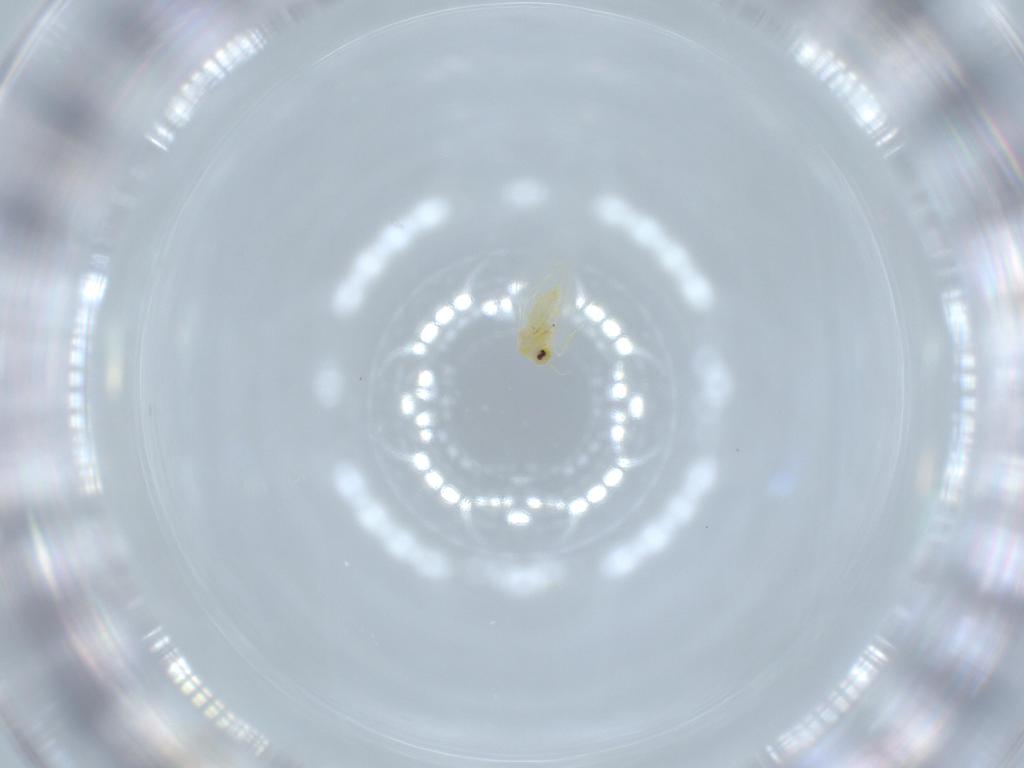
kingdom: Animalia
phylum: Arthropoda
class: Insecta
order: Hemiptera
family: Aleyrodidae
